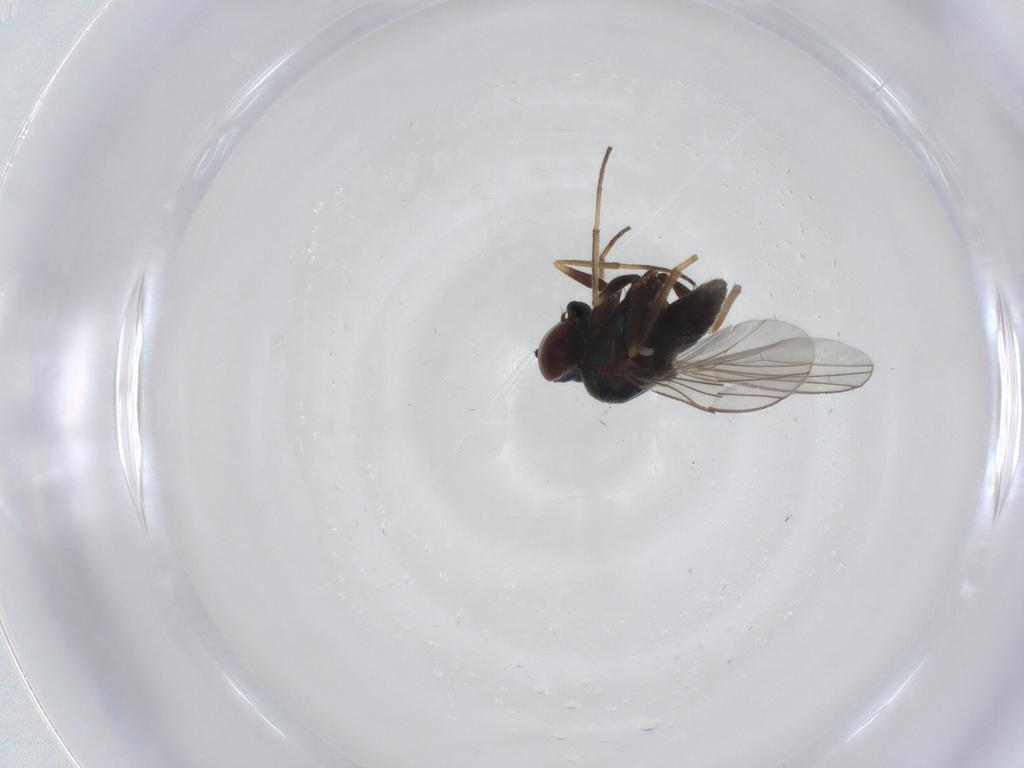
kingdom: Animalia
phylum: Arthropoda
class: Insecta
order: Diptera
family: Dolichopodidae
